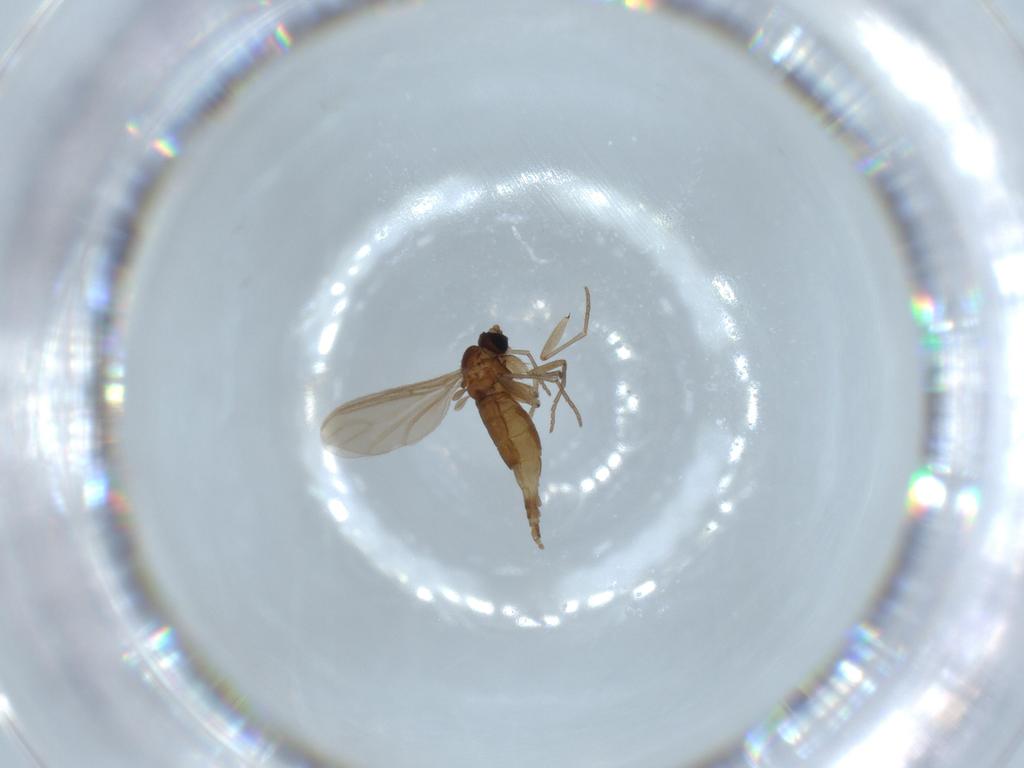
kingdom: Animalia
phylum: Arthropoda
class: Insecta
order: Diptera
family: Sciaridae
